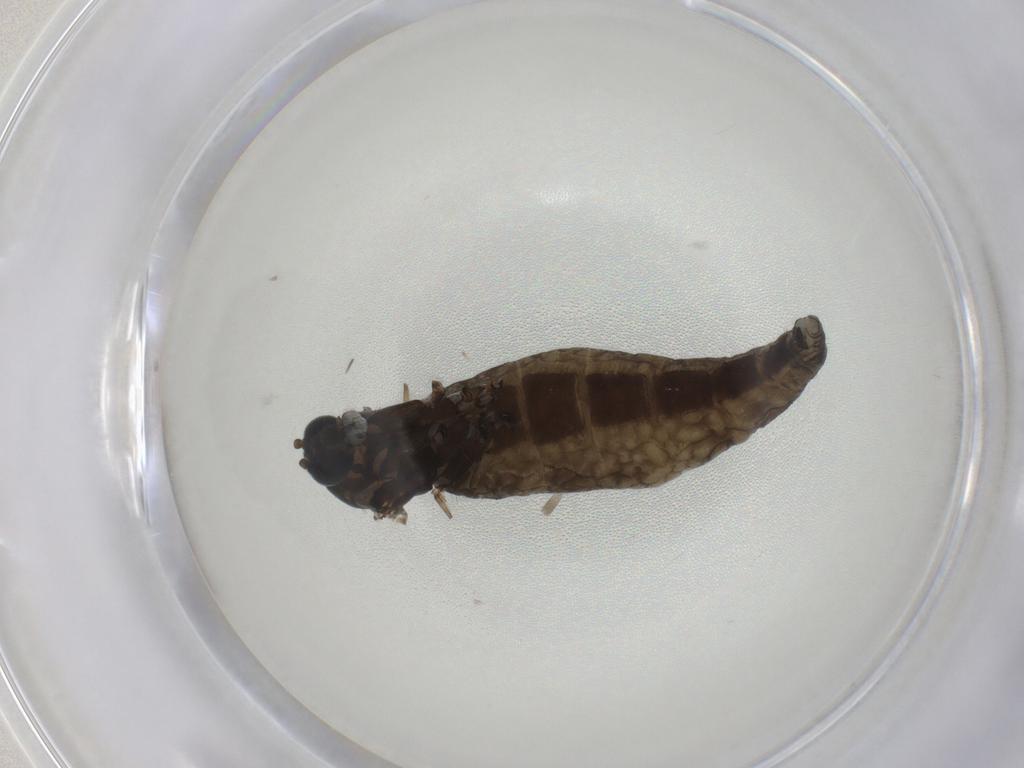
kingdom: Animalia
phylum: Arthropoda
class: Insecta
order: Diptera
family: Sciaridae
